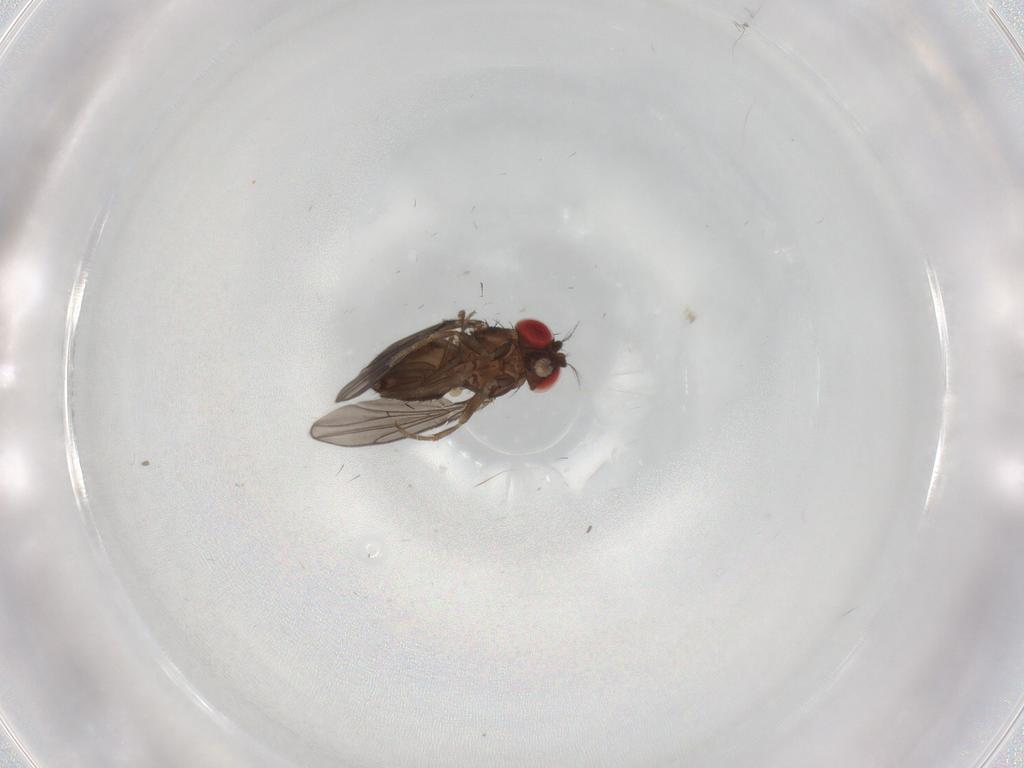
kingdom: Animalia
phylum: Arthropoda
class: Insecta
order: Diptera
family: Drosophilidae
